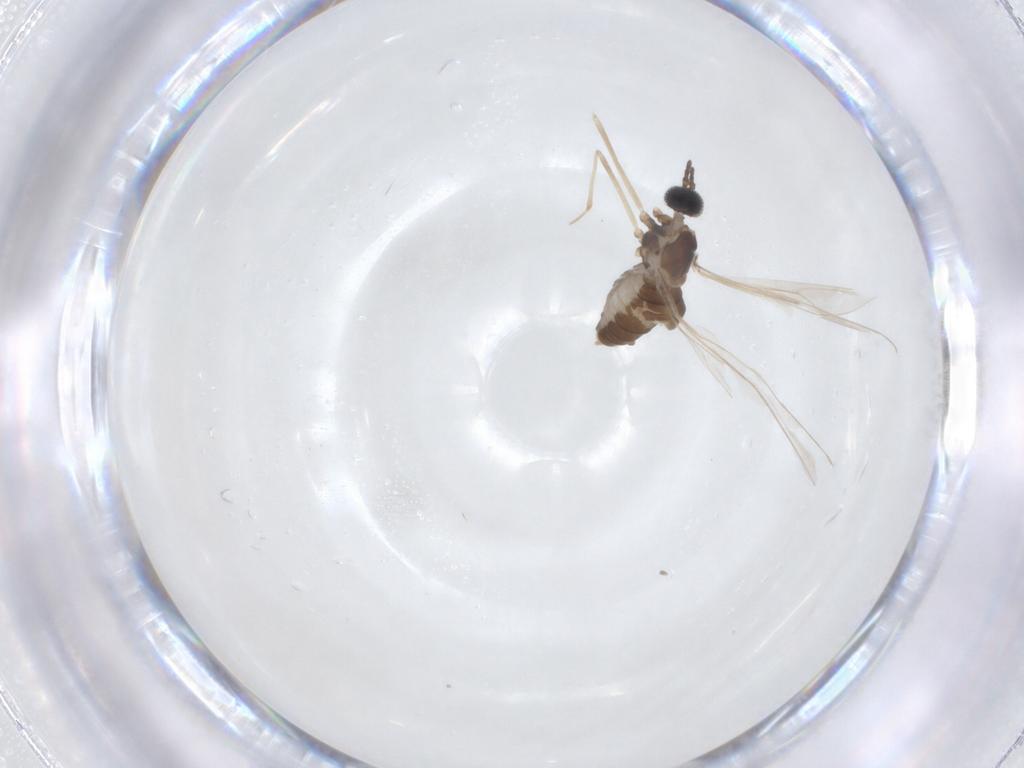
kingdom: Animalia
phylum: Arthropoda
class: Insecta
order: Diptera
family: Cecidomyiidae
